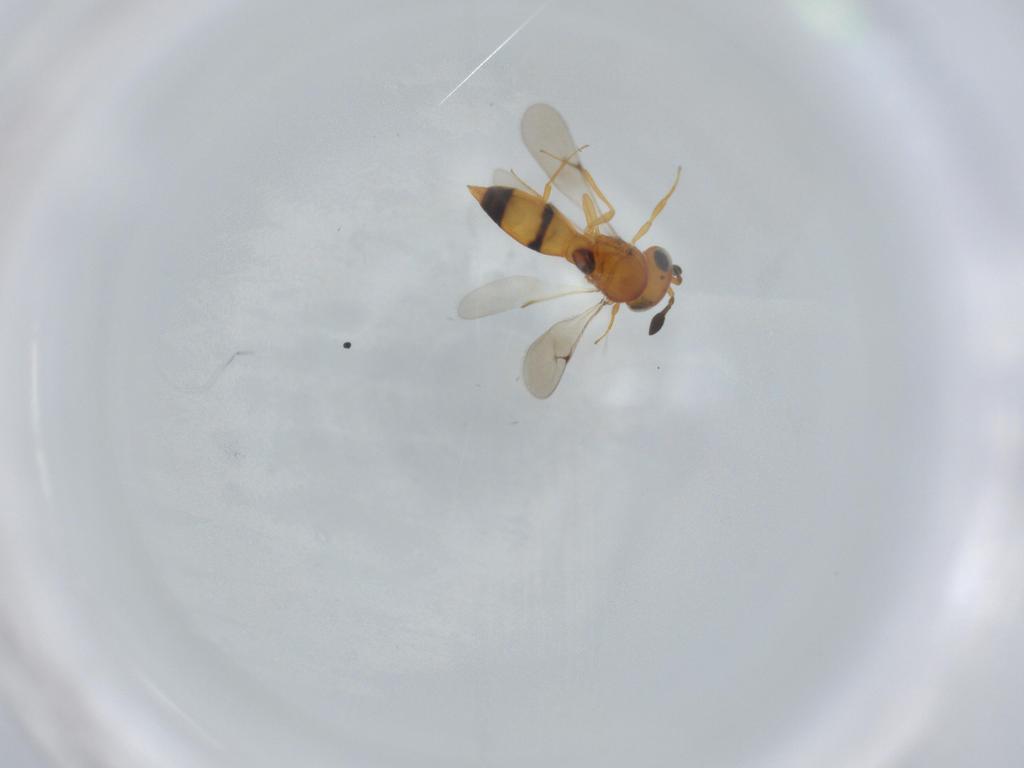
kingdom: Animalia
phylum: Arthropoda
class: Insecta
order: Hymenoptera
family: Scelionidae
